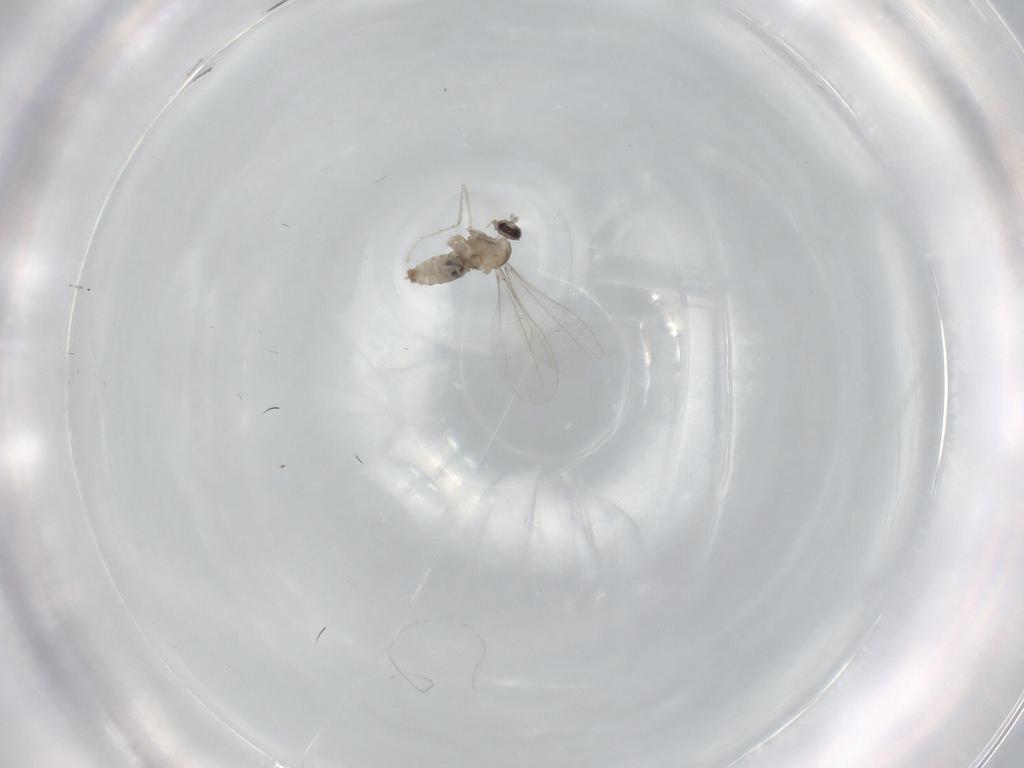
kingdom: Animalia
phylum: Arthropoda
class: Insecta
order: Diptera
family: Cecidomyiidae
